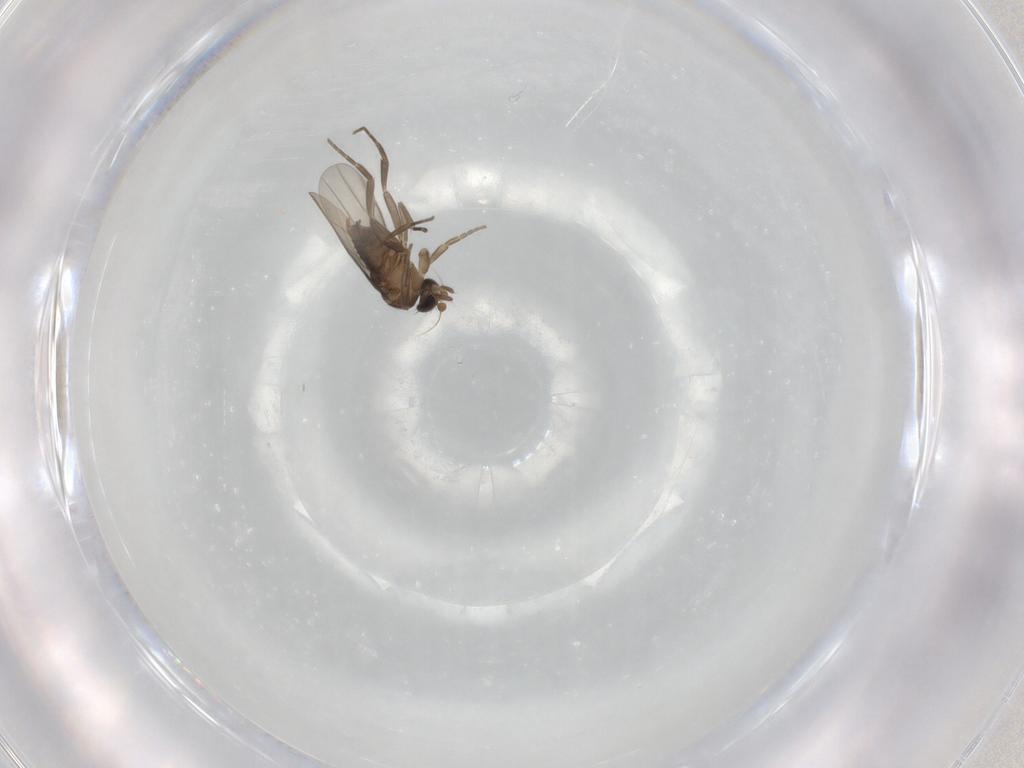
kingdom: Animalia
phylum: Arthropoda
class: Insecta
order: Diptera
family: Phoridae
